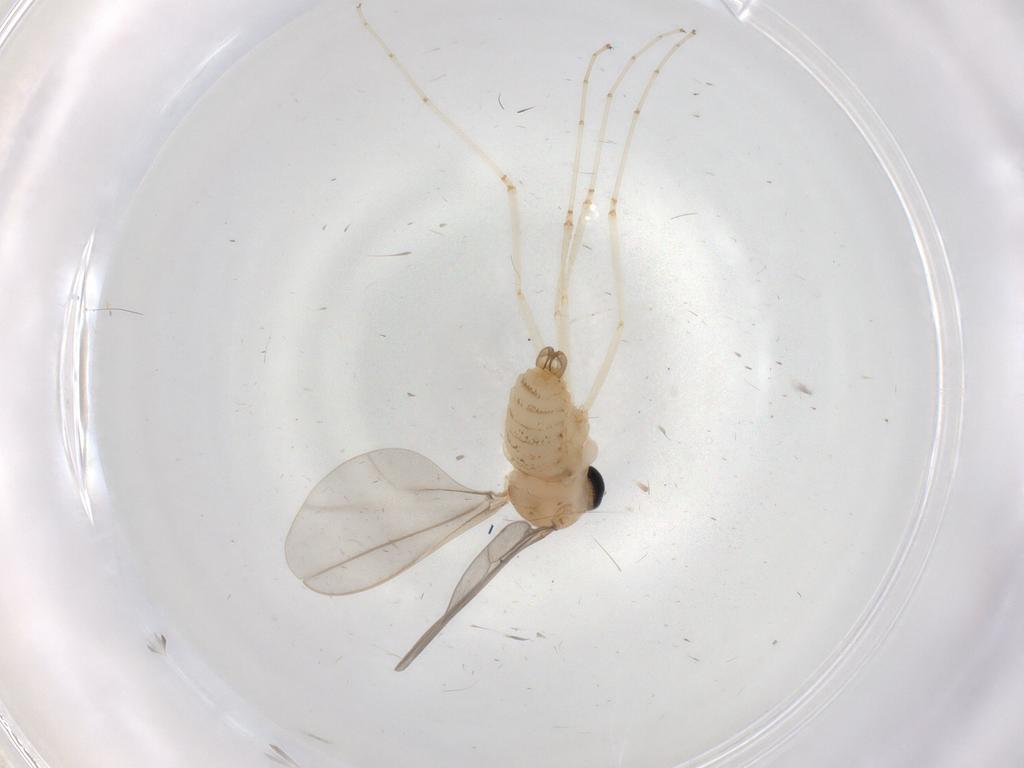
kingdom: Animalia
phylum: Arthropoda
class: Insecta
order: Diptera
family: Cecidomyiidae
